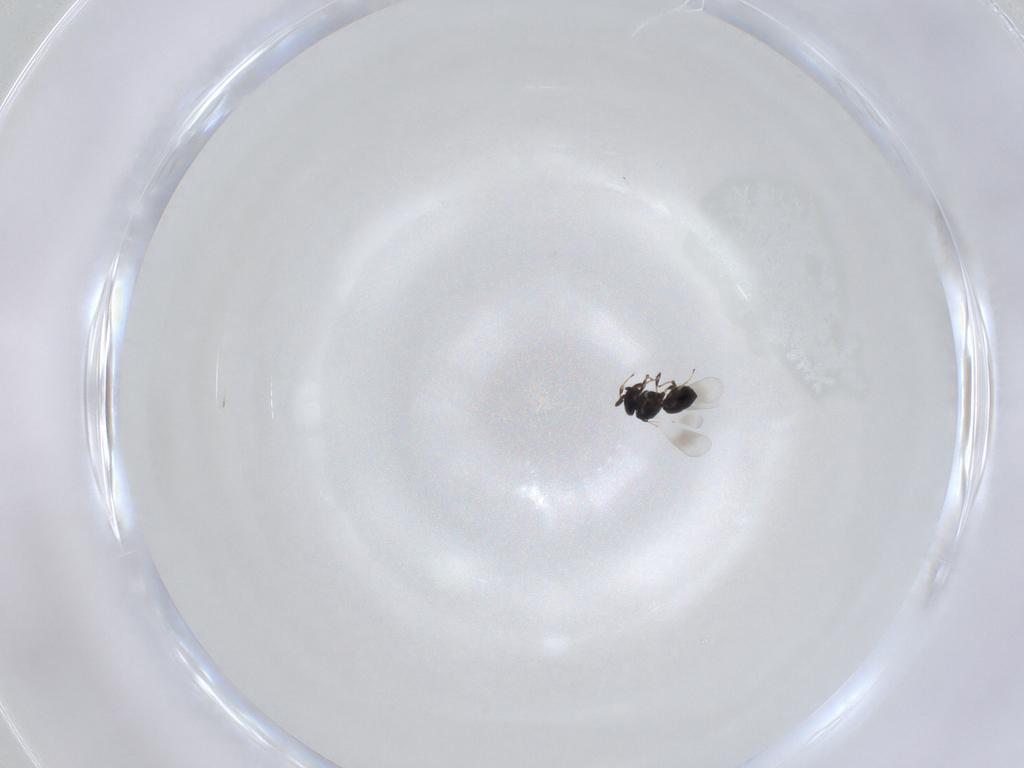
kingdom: Animalia
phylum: Arthropoda
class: Insecta
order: Hymenoptera
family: Platygastridae
